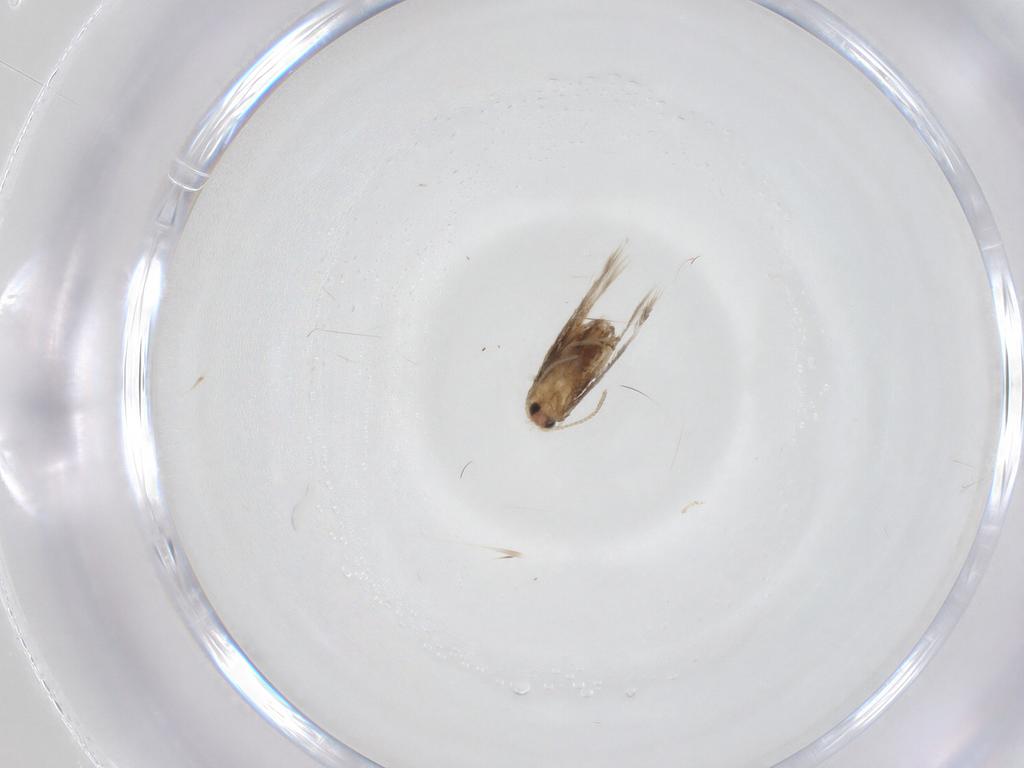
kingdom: Animalia
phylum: Arthropoda
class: Insecta
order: Lepidoptera
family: Nepticulidae
